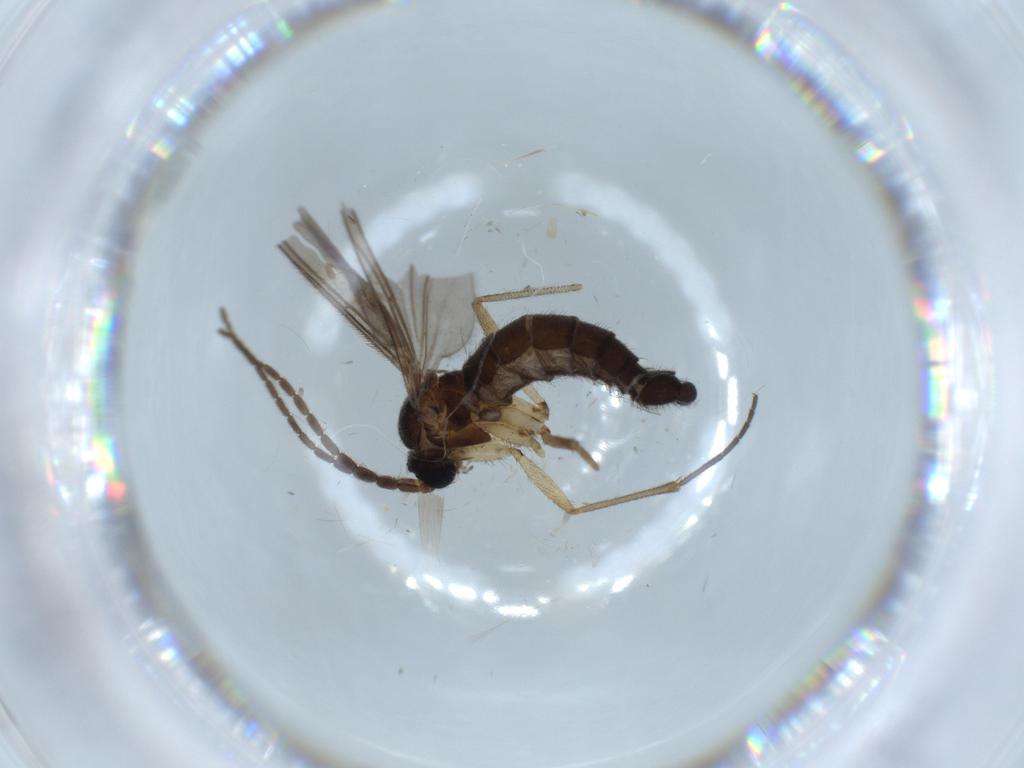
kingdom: Animalia
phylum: Arthropoda
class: Insecta
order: Diptera
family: Sciaridae
